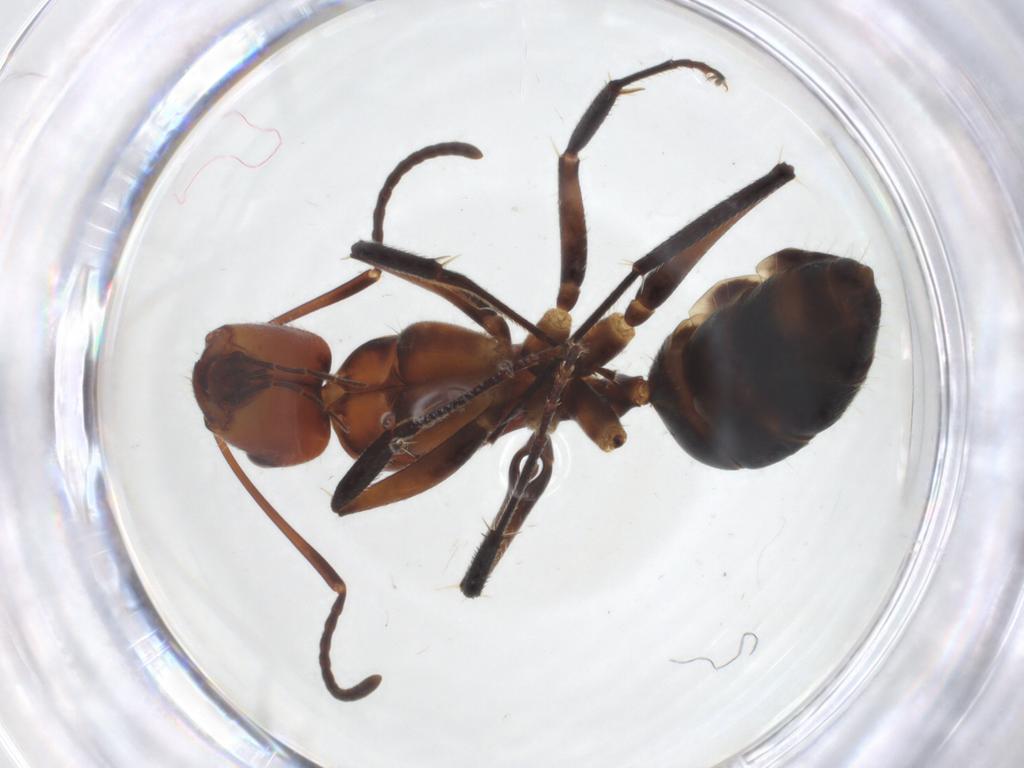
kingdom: Animalia
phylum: Arthropoda
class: Insecta
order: Hymenoptera
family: Formicidae
